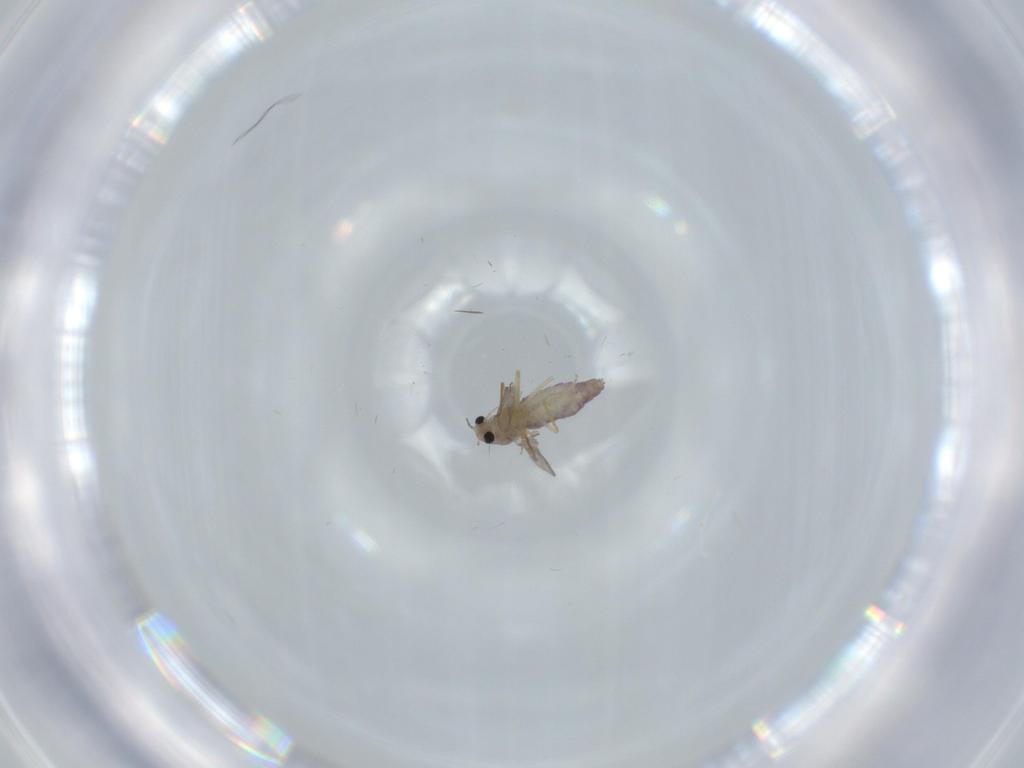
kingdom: Animalia
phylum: Arthropoda
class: Insecta
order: Diptera
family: Chironomidae
